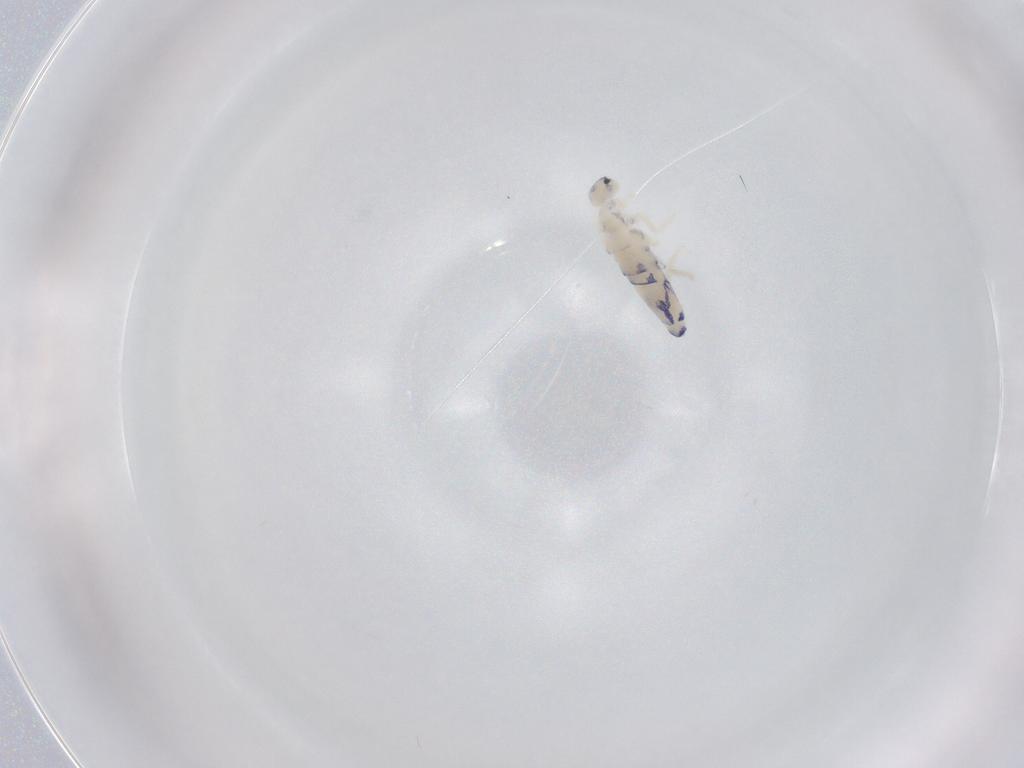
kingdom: Animalia
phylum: Arthropoda
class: Collembola
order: Entomobryomorpha
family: Entomobryidae
